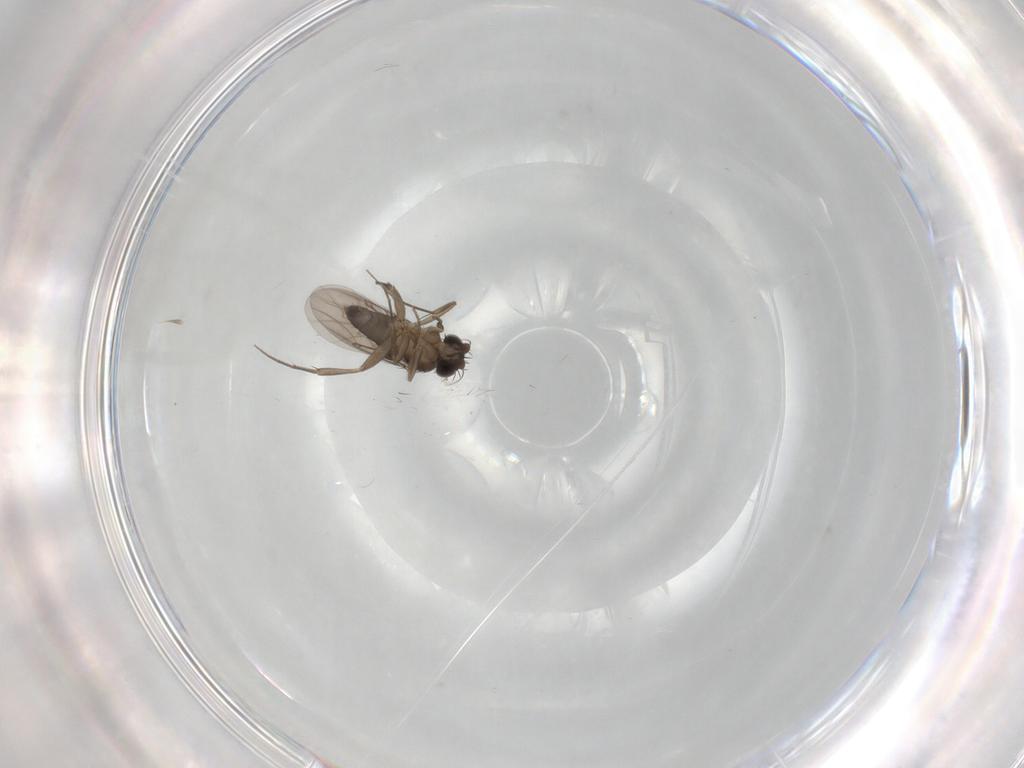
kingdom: Animalia
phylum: Arthropoda
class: Insecta
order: Diptera
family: Phoridae
